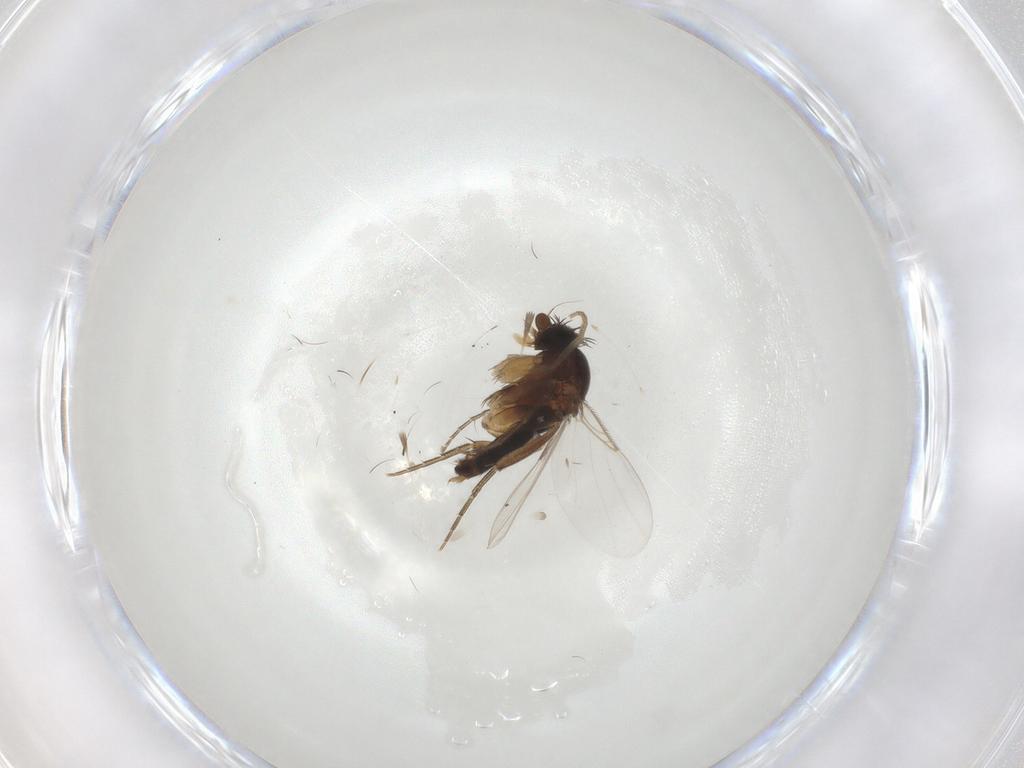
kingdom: Animalia
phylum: Arthropoda
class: Insecta
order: Diptera
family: Phoridae
